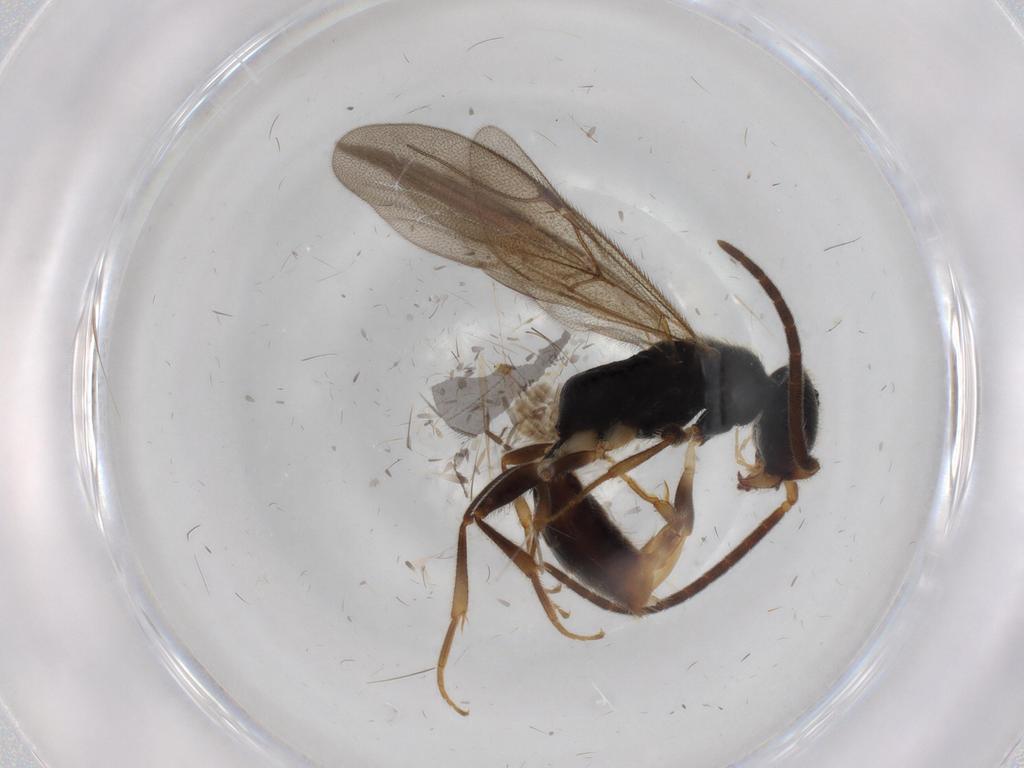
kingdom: Animalia
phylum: Arthropoda
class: Insecta
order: Hymenoptera
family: Bethylidae
